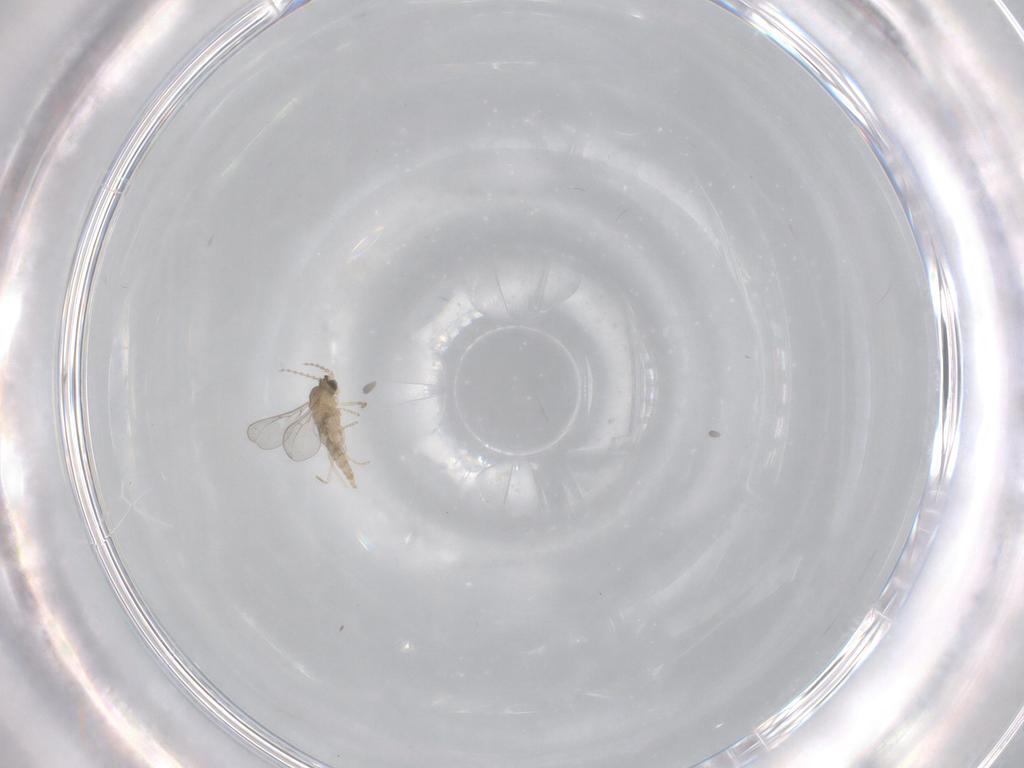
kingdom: Animalia
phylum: Arthropoda
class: Insecta
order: Diptera
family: Cecidomyiidae
